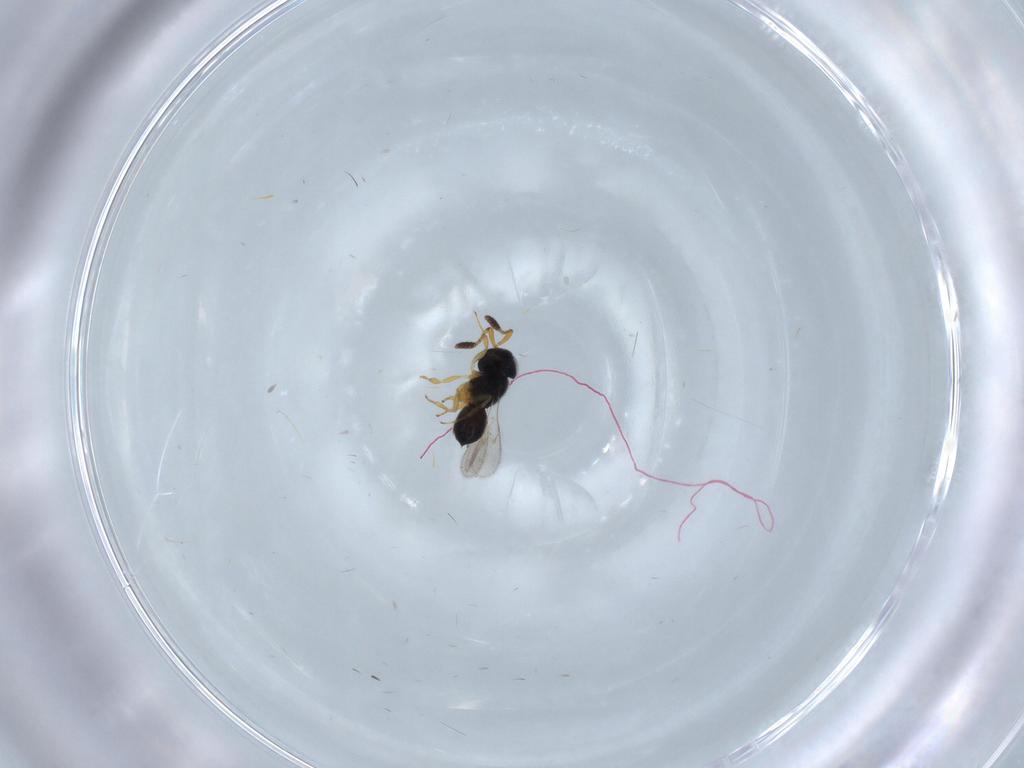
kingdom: Animalia
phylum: Arthropoda
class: Insecta
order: Hymenoptera
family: Scelionidae
